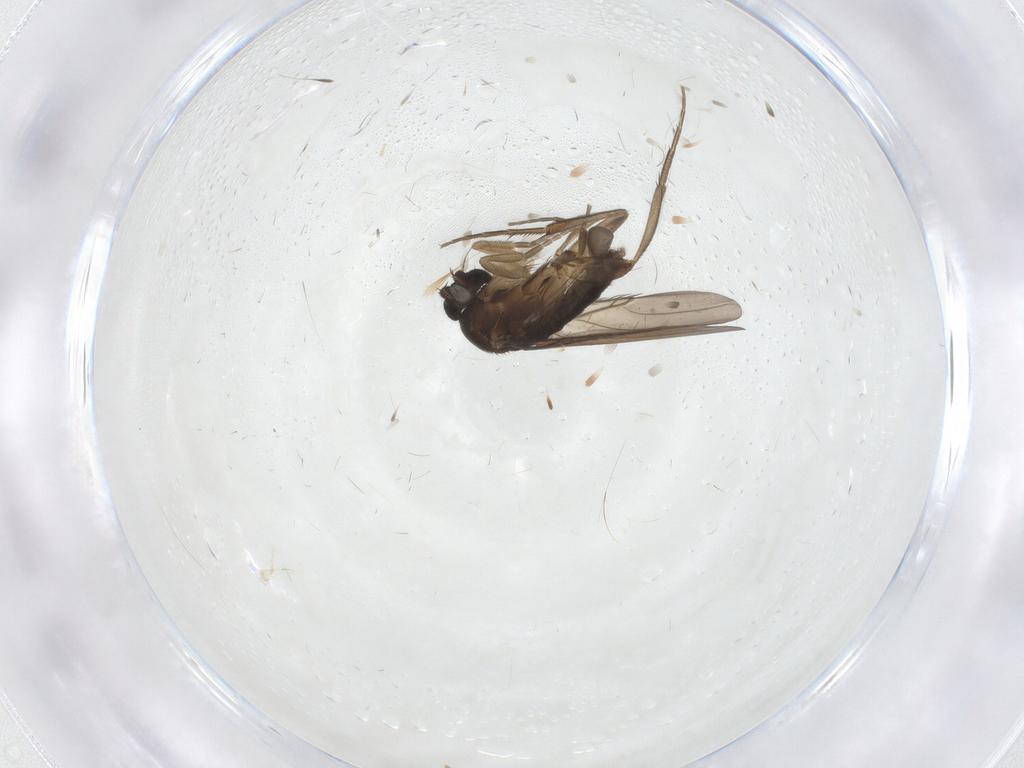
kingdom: Animalia
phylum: Arthropoda
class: Insecta
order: Diptera
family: Phoridae
